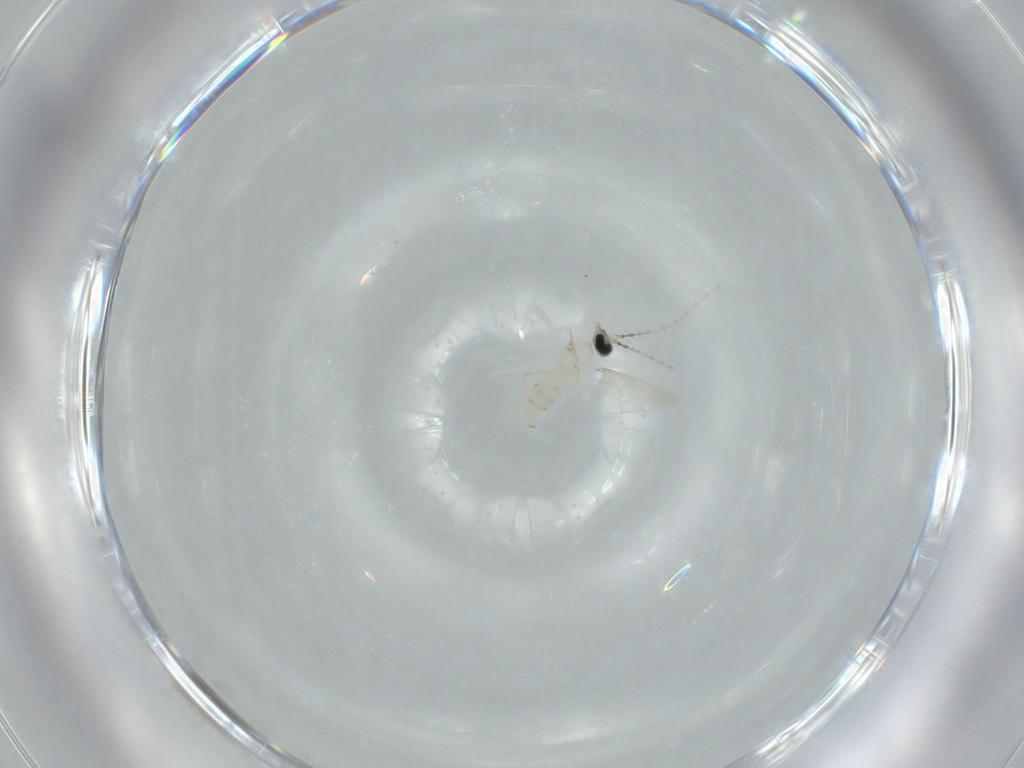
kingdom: Animalia
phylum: Arthropoda
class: Insecta
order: Diptera
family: Cecidomyiidae
